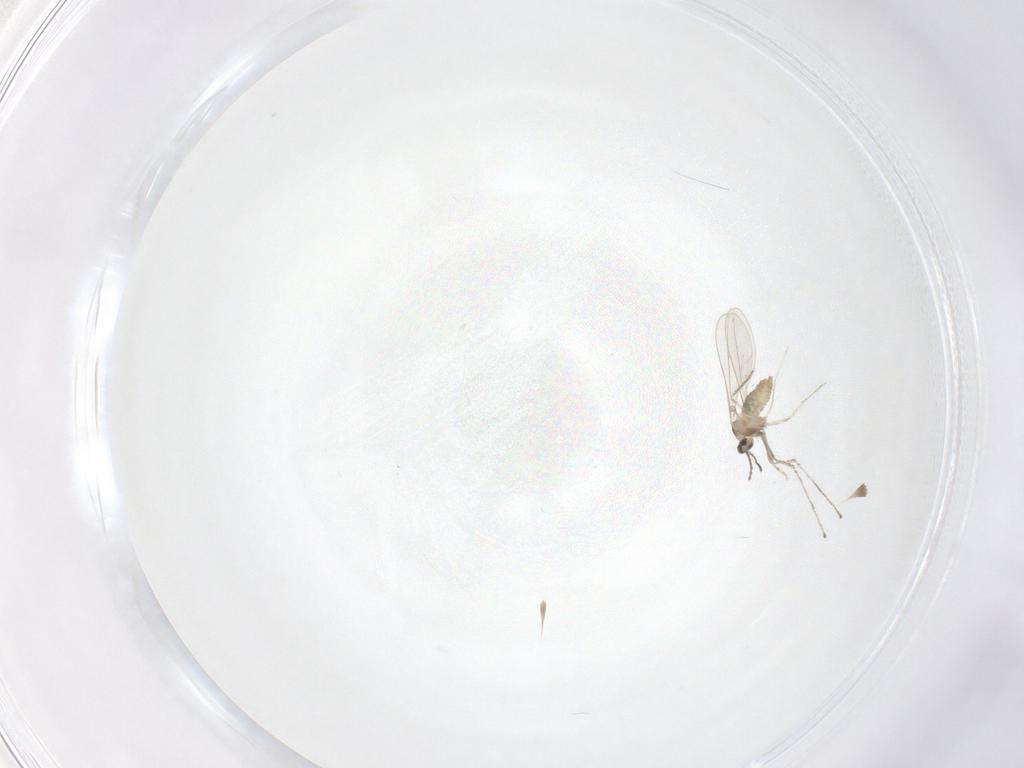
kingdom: Animalia
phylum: Arthropoda
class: Insecta
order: Diptera
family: Cecidomyiidae
